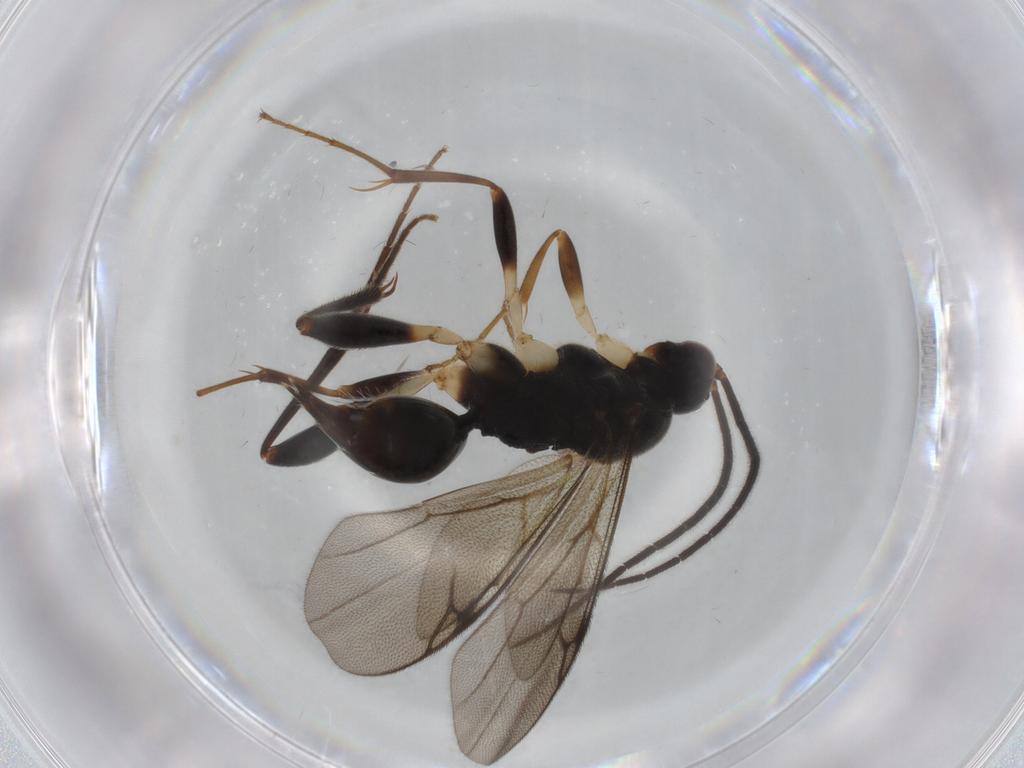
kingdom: Animalia
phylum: Arthropoda
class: Insecta
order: Hymenoptera
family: Proctotrupidae
